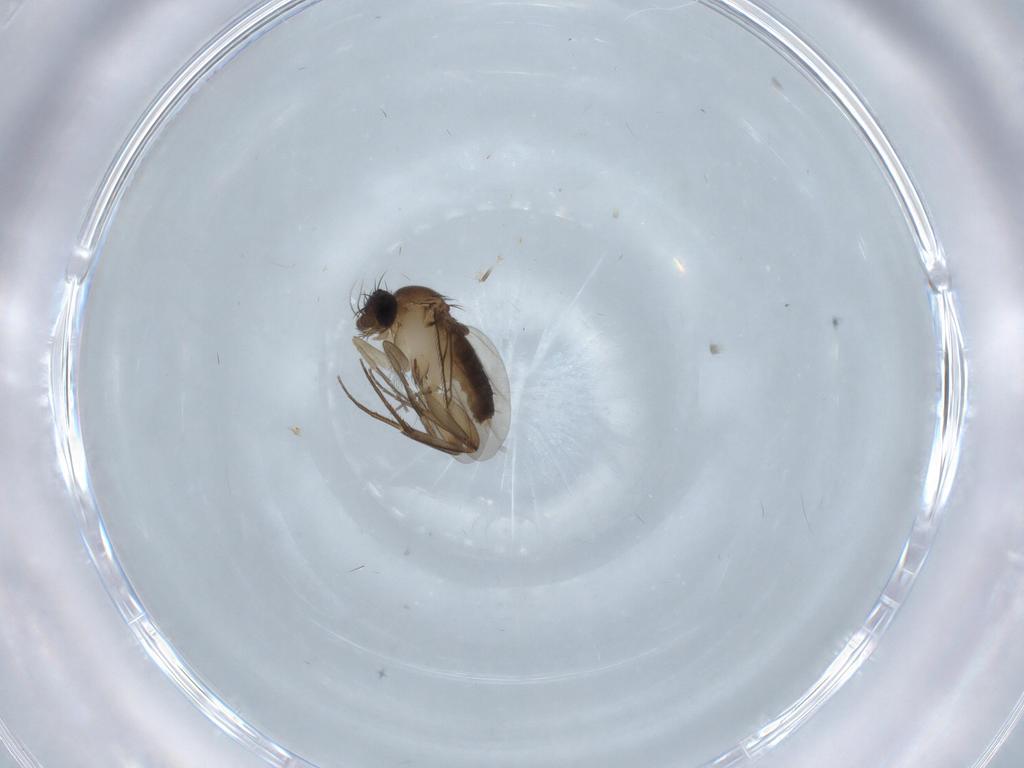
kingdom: Animalia
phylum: Arthropoda
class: Insecta
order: Diptera
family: Phoridae
